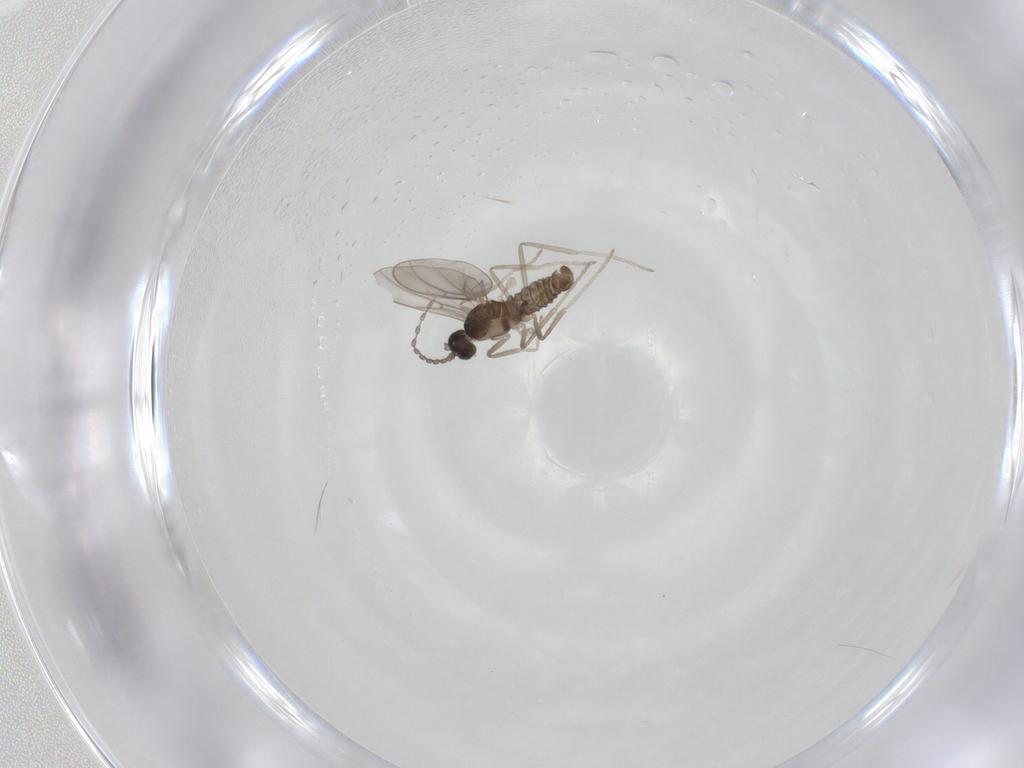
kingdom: Animalia
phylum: Arthropoda
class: Insecta
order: Diptera
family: Cecidomyiidae
